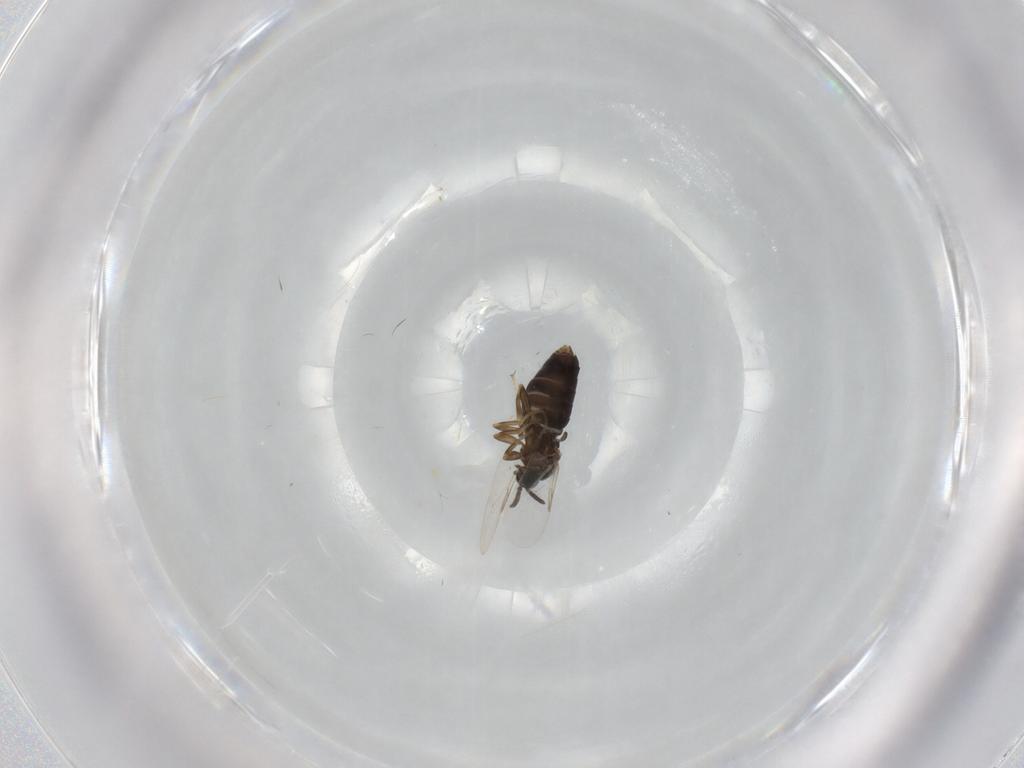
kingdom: Animalia
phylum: Arthropoda
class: Insecta
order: Diptera
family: Scatopsidae
